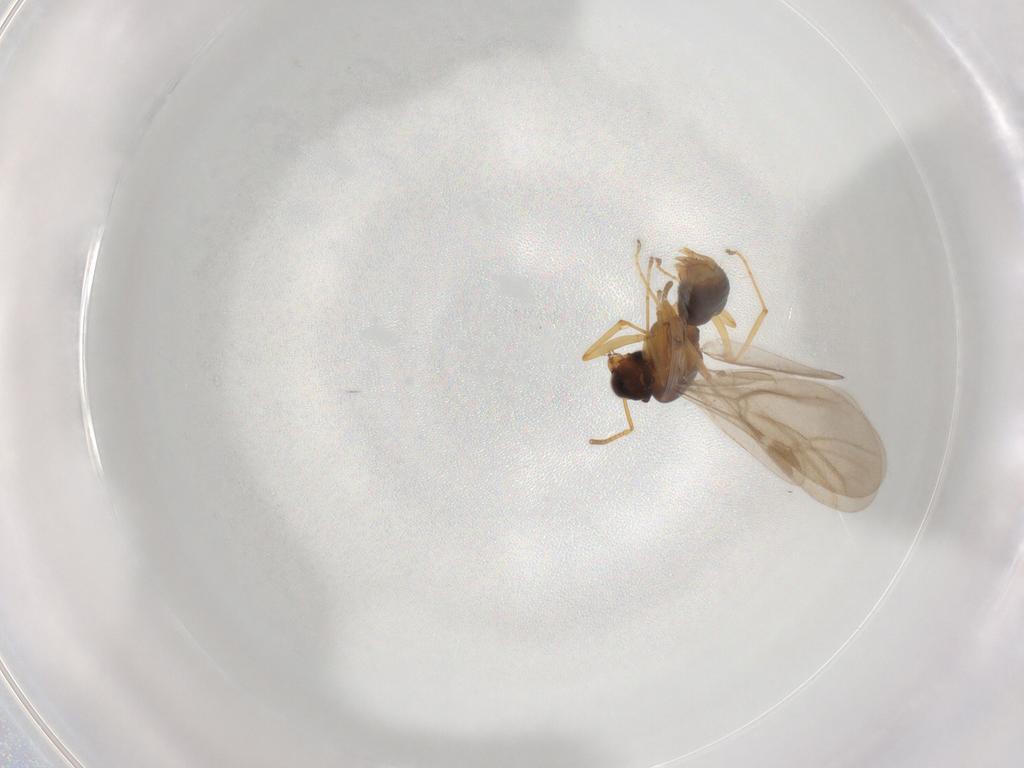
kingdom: Animalia
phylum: Arthropoda
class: Insecta
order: Hymenoptera
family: Formicidae
